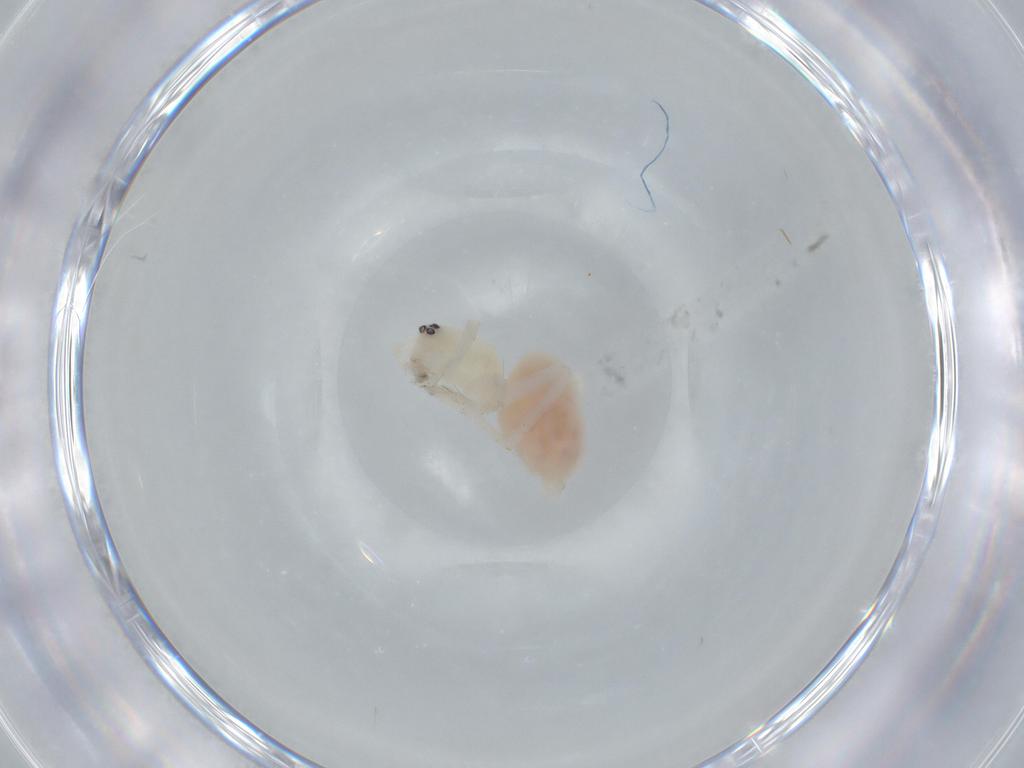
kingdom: Animalia
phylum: Arthropoda
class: Arachnida
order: Araneae
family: Anyphaenidae
